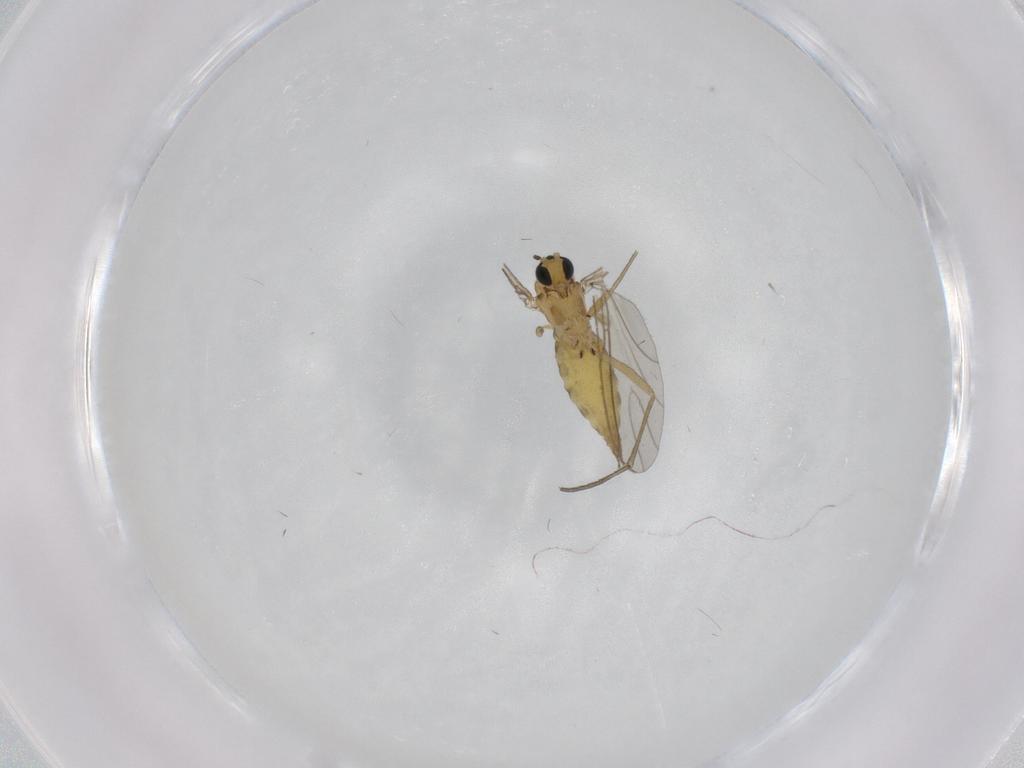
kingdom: Animalia
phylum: Arthropoda
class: Insecta
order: Diptera
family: Sciaridae
